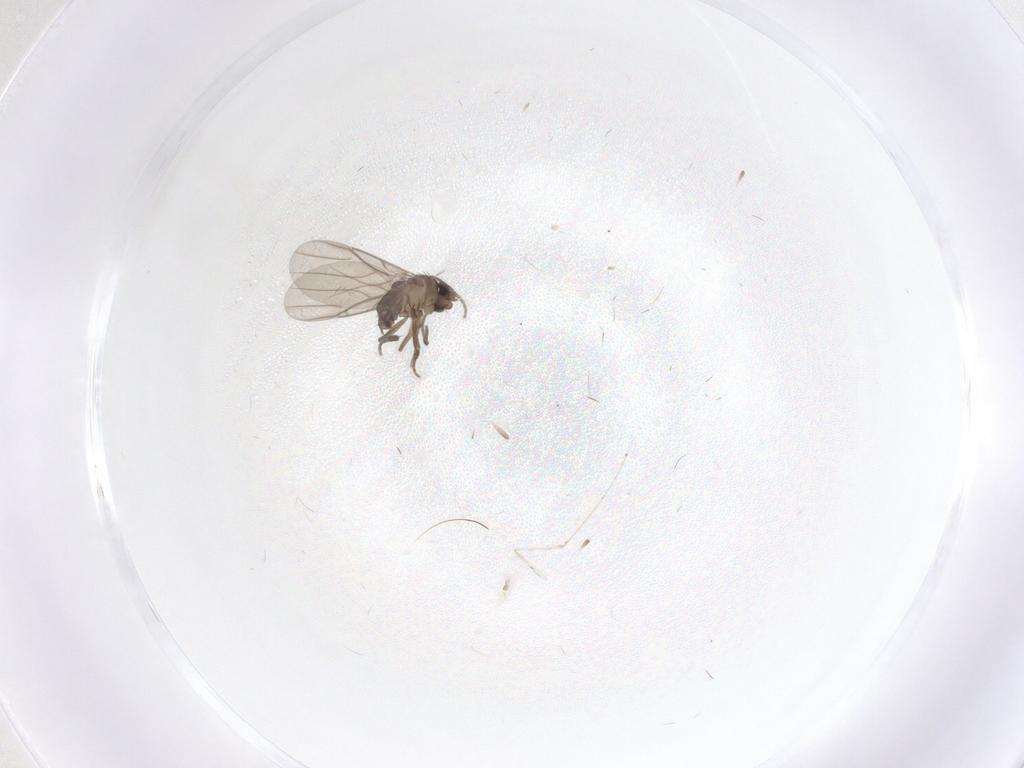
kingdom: Animalia
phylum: Arthropoda
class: Insecta
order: Diptera
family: Phoridae
